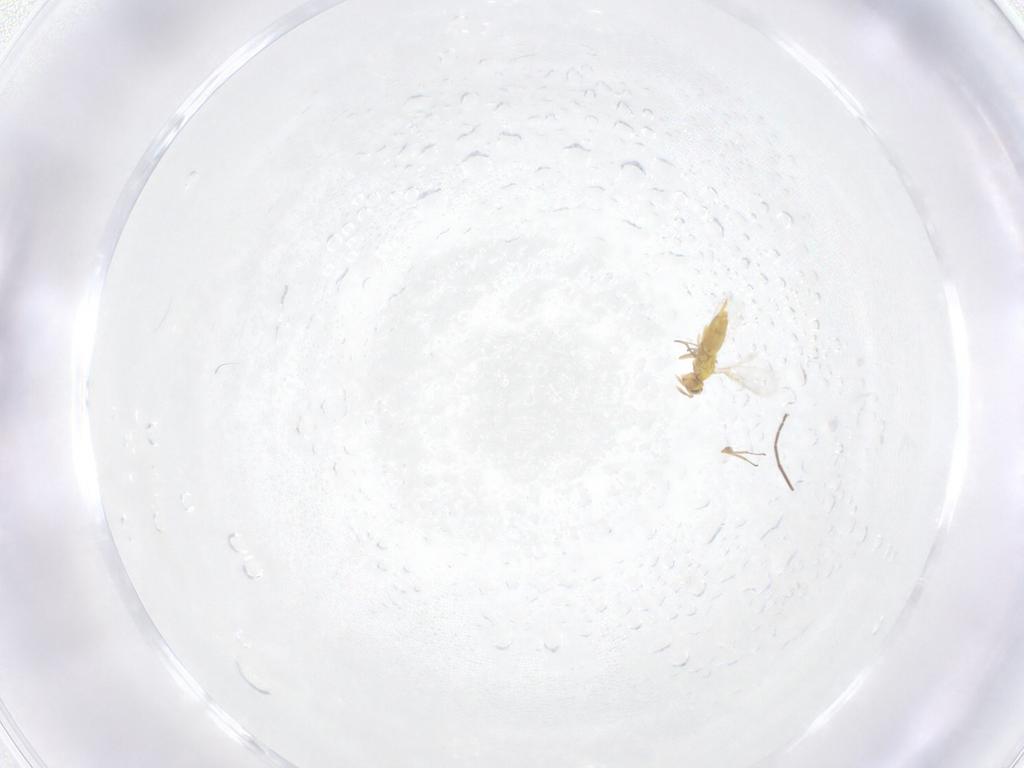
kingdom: Animalia
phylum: Arthropoda
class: Insecta
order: Hymenoptera
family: Aphelinidae
